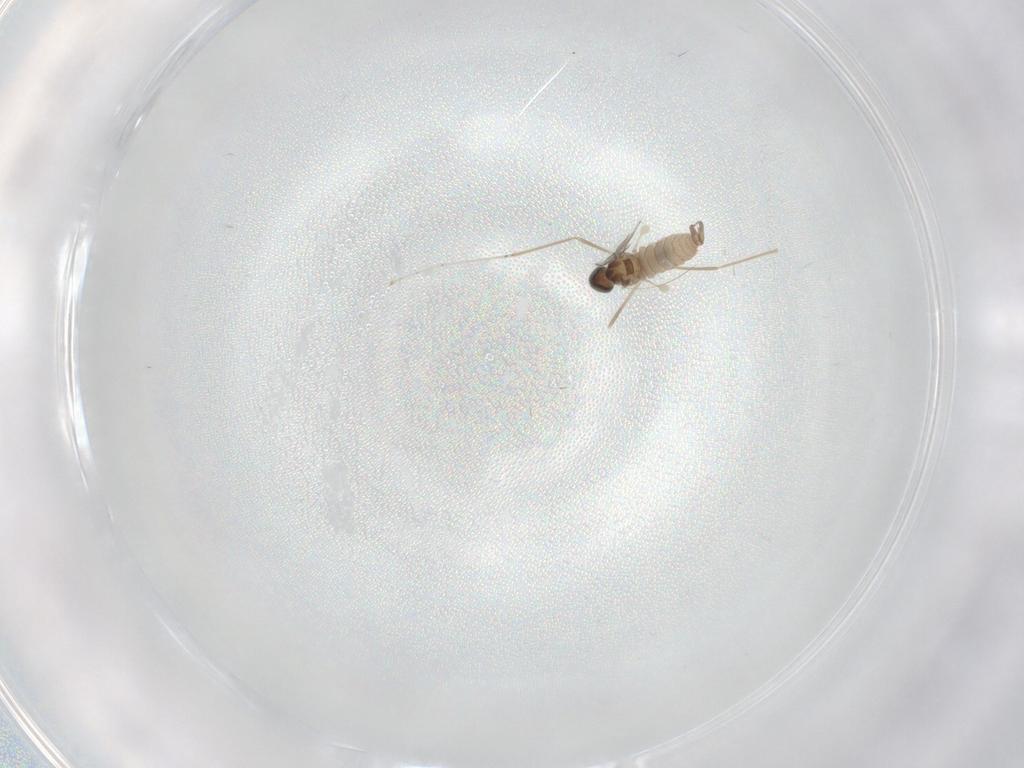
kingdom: Animalia
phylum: Arthropoda
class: Insecta
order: Diptera
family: Cecidomyiidae
